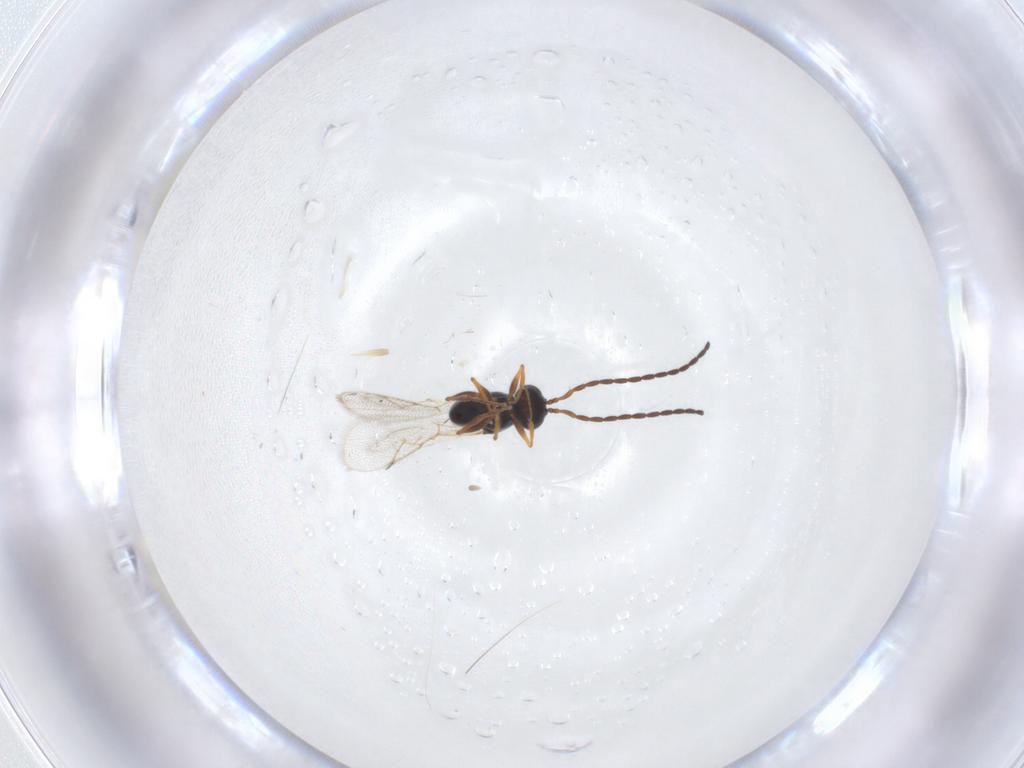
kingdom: Animalia
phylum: Arthropoda
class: Insecta
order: Hymenoptera
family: Figitidae
